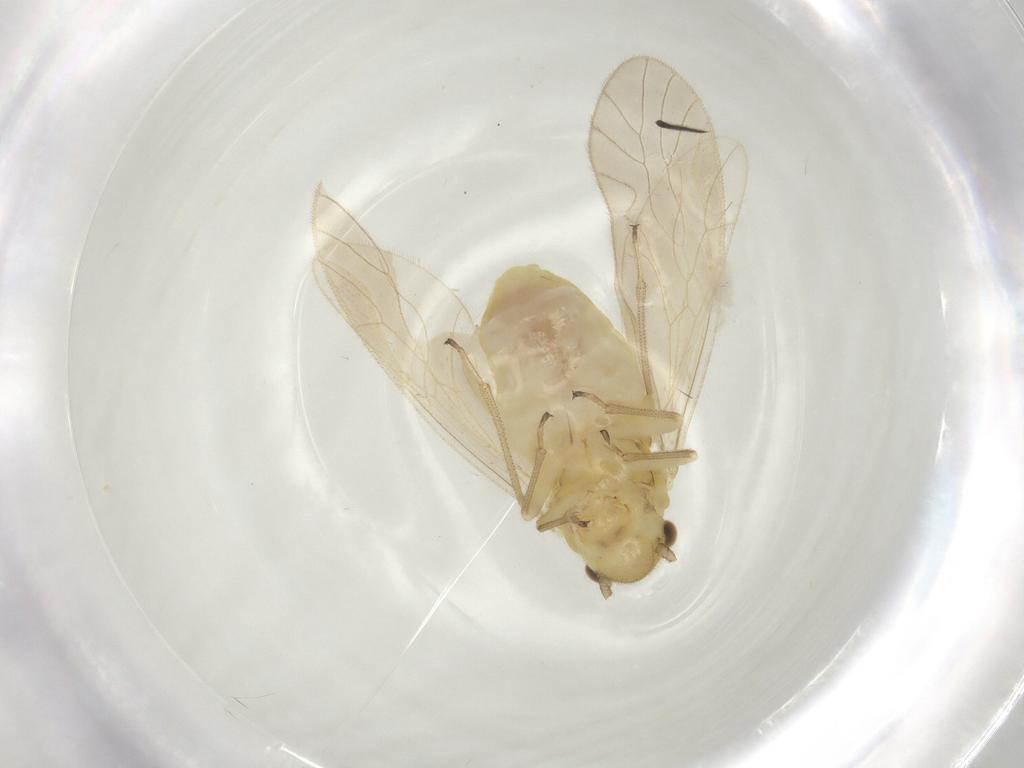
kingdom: Animalia
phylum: Arthropoda
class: Insecta
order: Psocodea
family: Caeciliusidae
